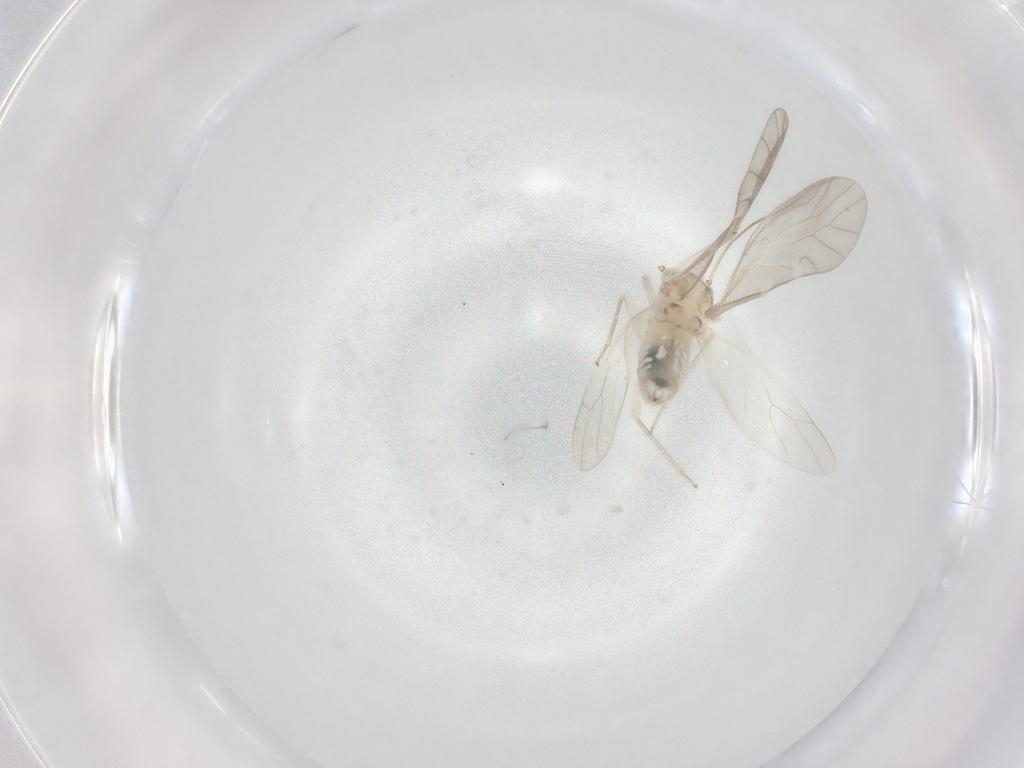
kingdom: Animalia
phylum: Arthropoda
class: Insecta
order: Psocodea
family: Caeciliusidae
